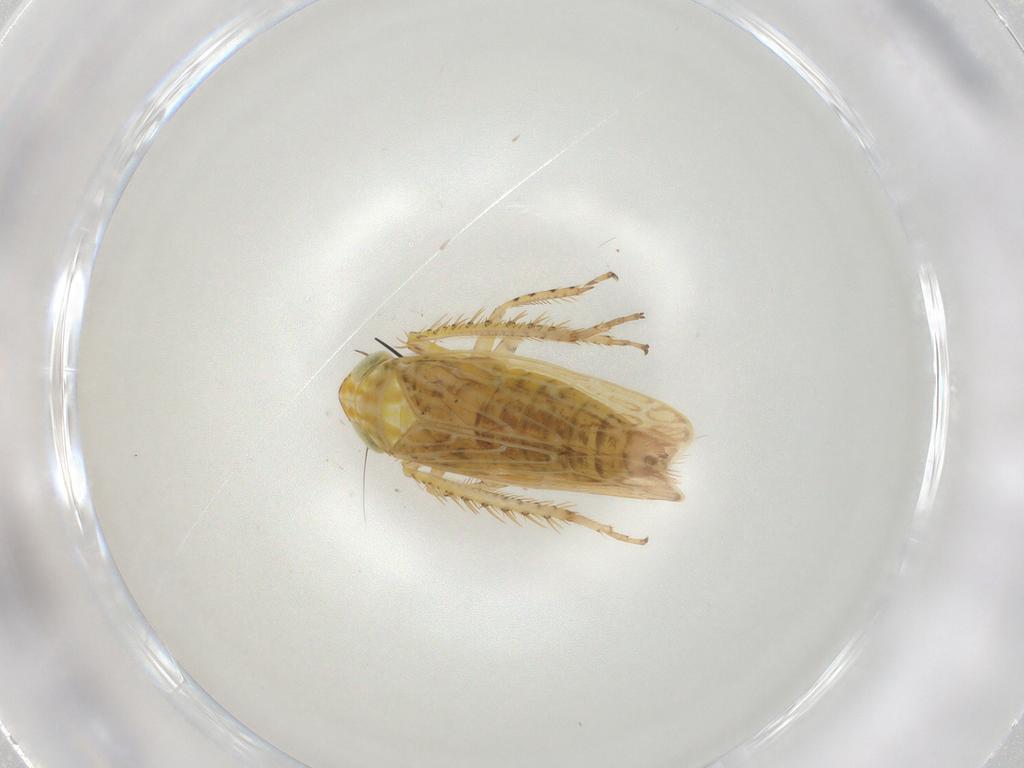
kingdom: Animalia
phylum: Arthropoda
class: Insecta
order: Hemiptera
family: Cicadellidae
